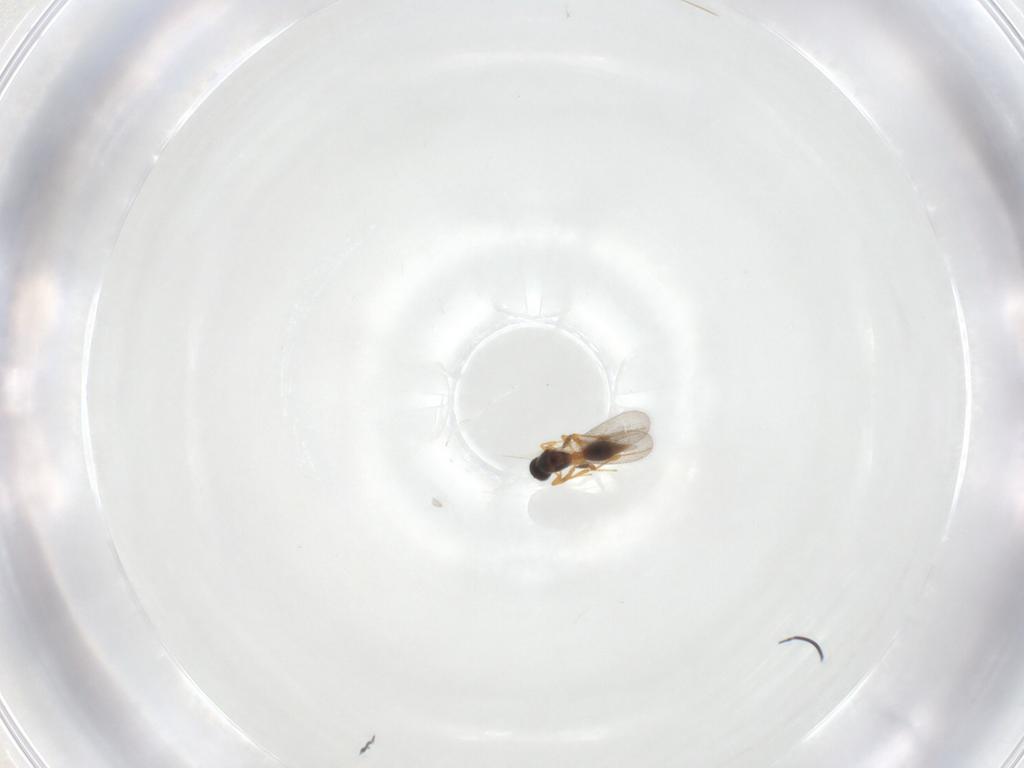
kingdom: Animalia
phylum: Arthropoda
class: Insecta
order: Hymenoptera
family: Platygastridae
